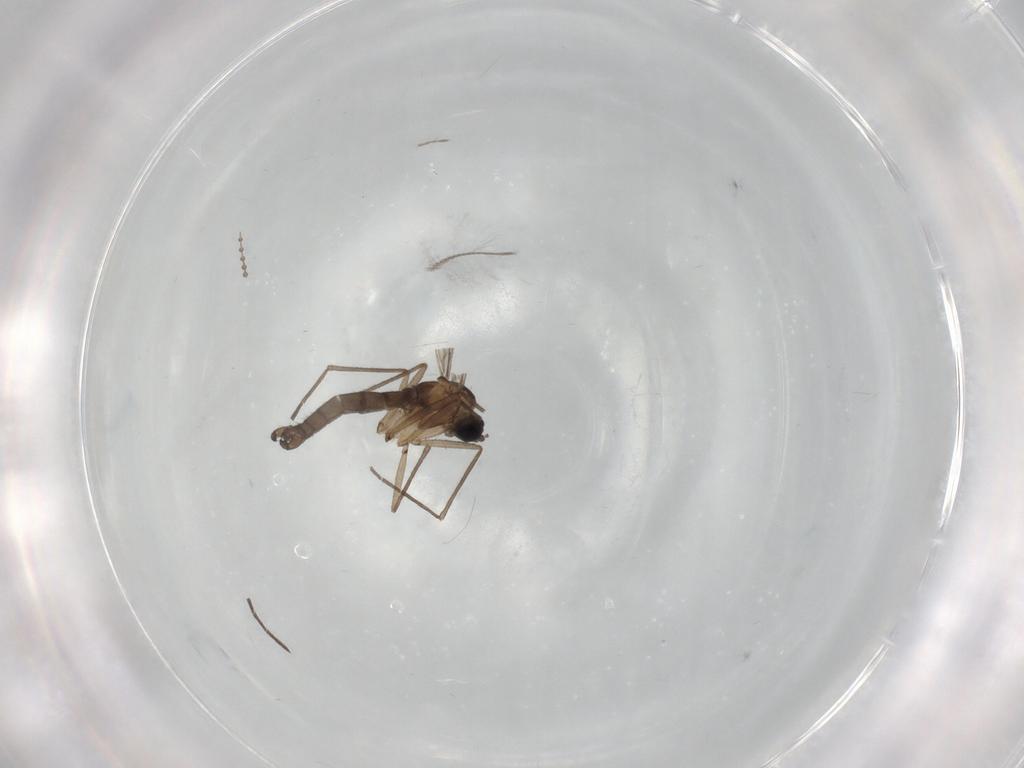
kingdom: Animalia
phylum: Arthropoda
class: Insecta
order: Diptera
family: Sciaridae
